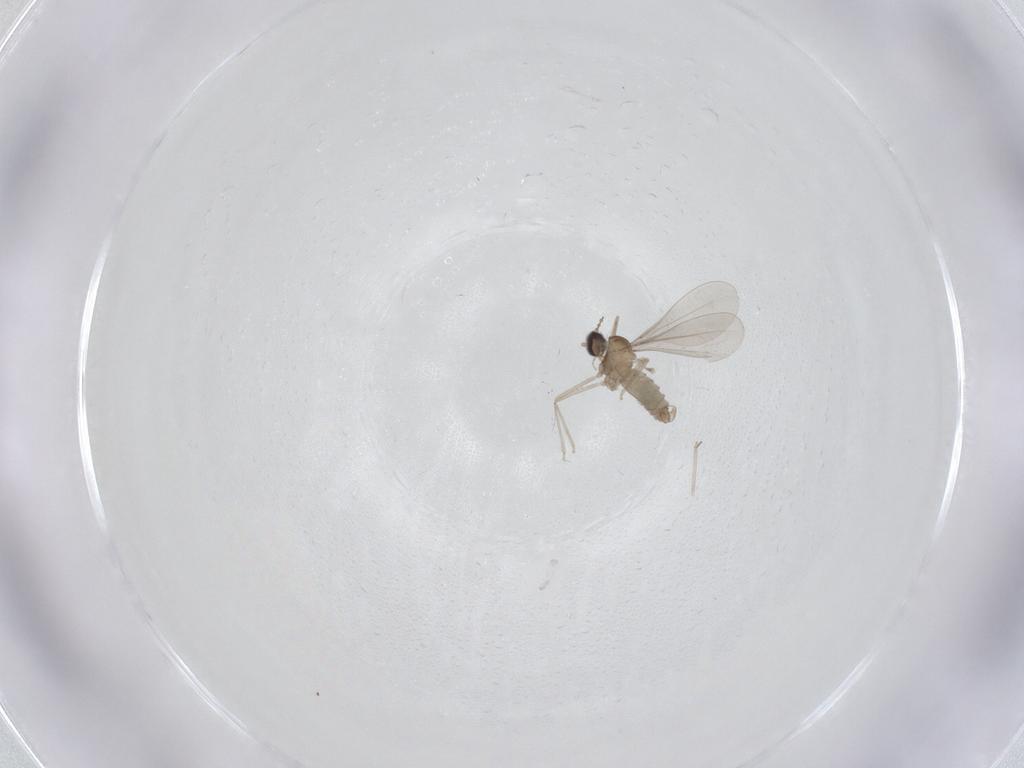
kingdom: Animalia
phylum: Arthropoda
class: Insecta
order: Diptera
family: Cecidomyiidae
